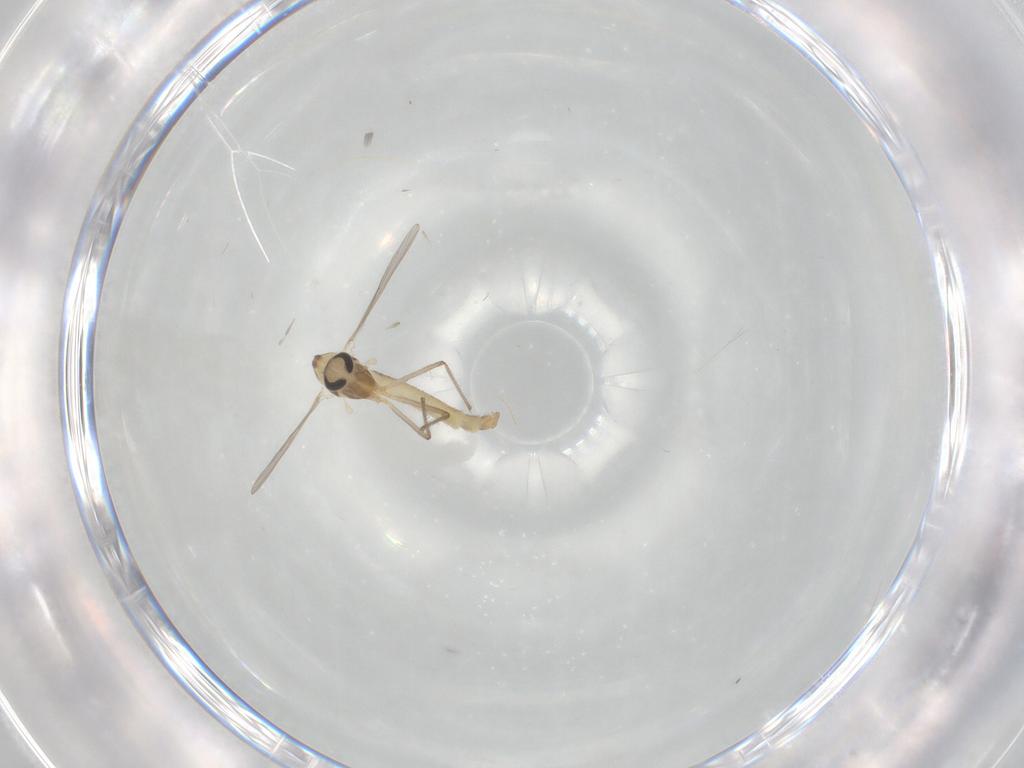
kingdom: Animalia
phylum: Arthropoda
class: Insecta
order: Diptera
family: Chironomidae
